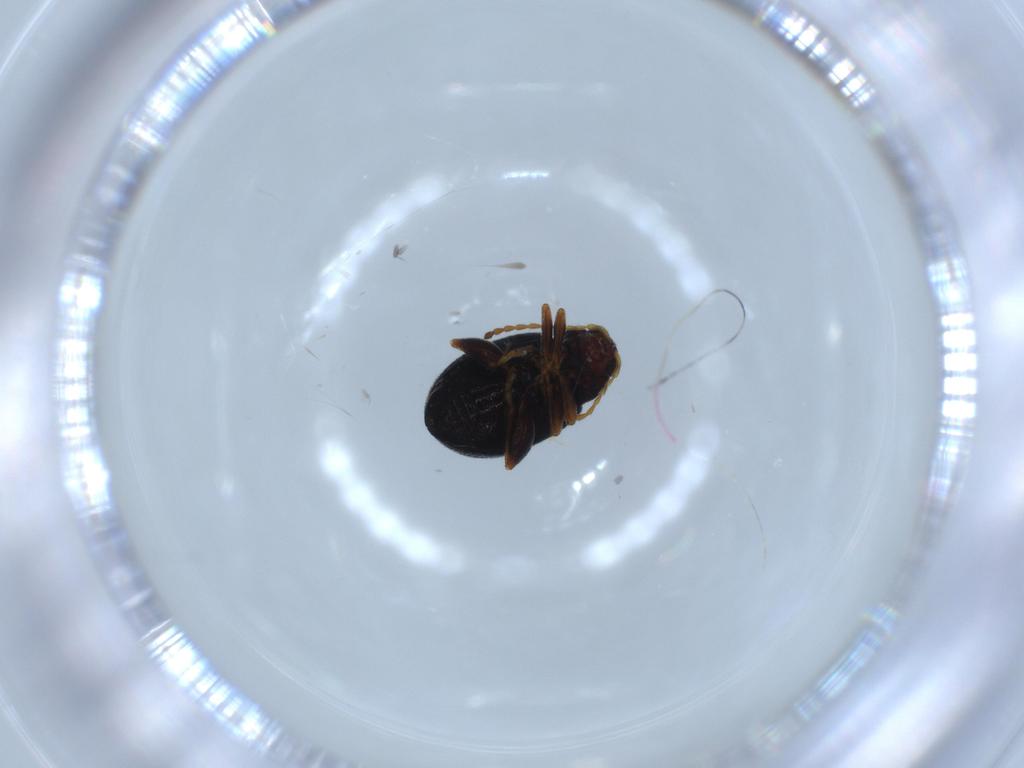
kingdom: Animalia
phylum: Arthropoda
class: Insecta
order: Coleoptera
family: Chrysomelidae
